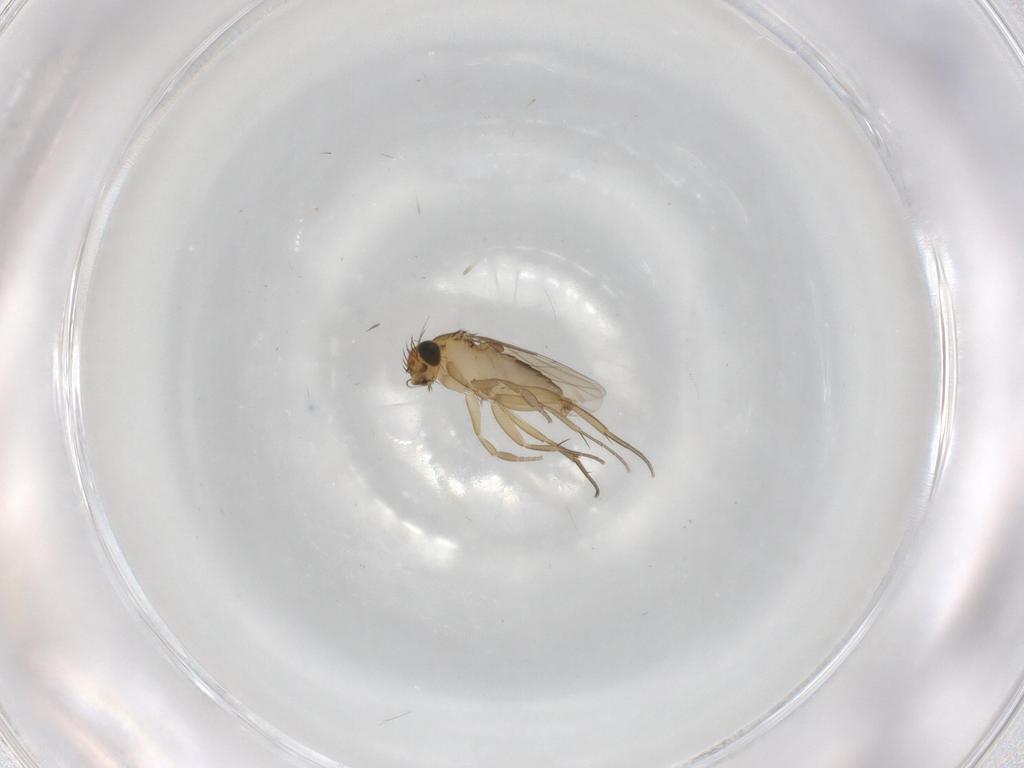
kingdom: Animalia
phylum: Arthropoda
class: Insecta
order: Diptera
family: Phoridae
